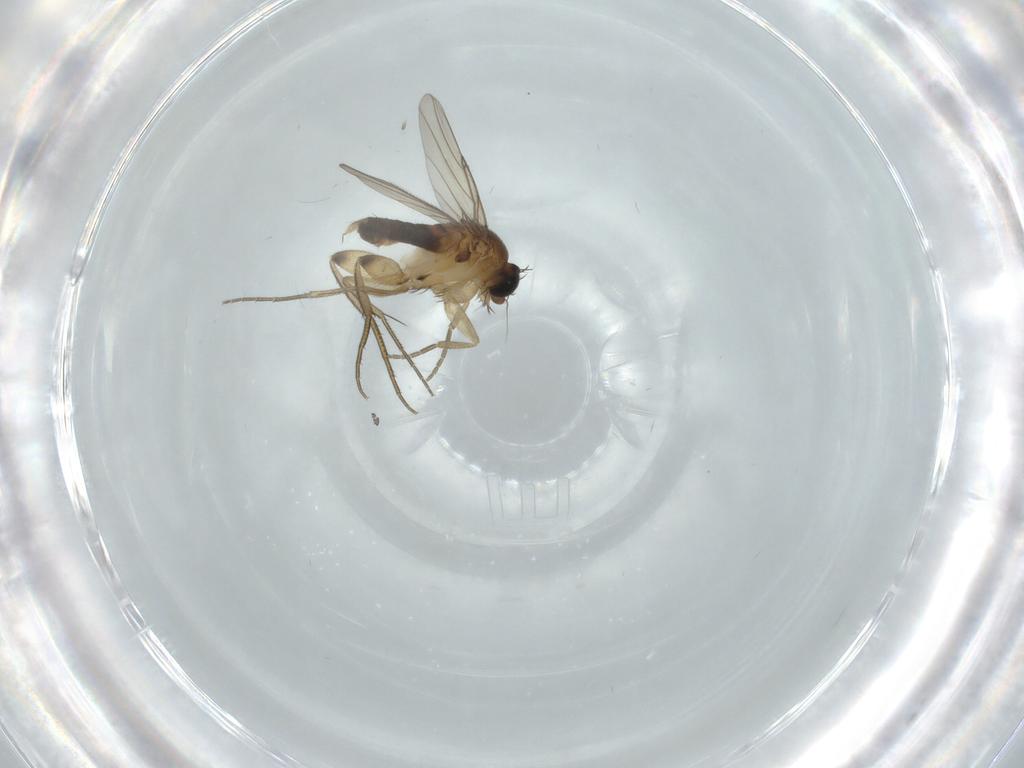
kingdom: Animalia
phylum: Arthropoda
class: Insecta
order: Diptera
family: Phoridae
